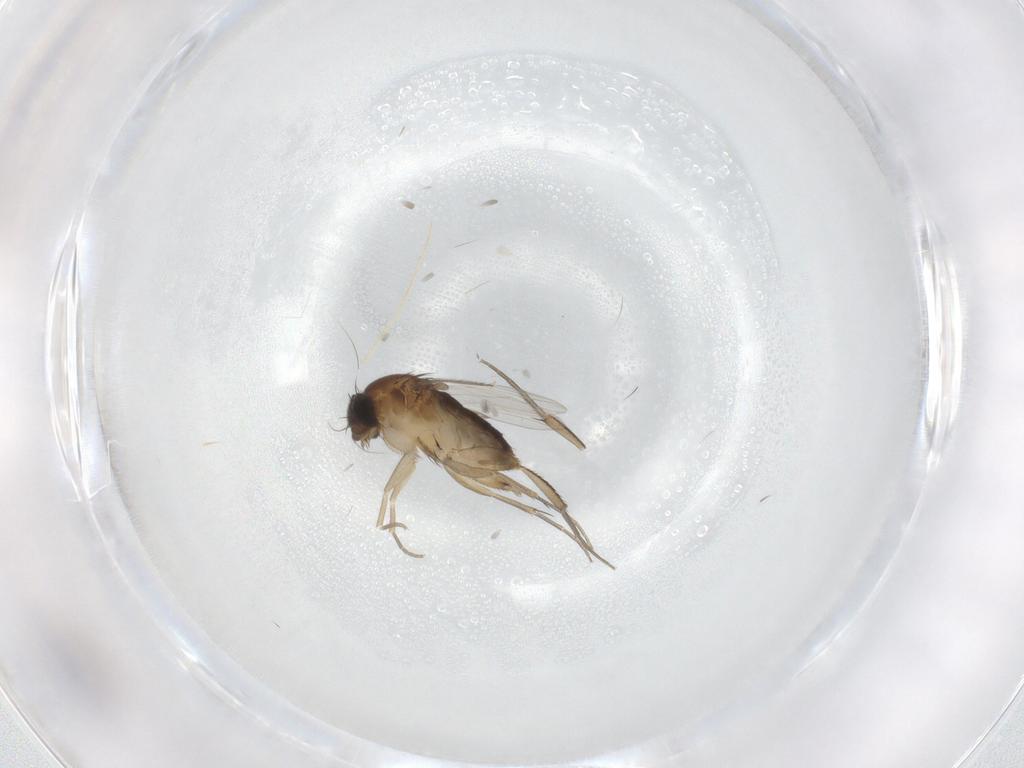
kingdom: Animalia
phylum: Arthropoda
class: Insecta
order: Diptera
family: Phoridae
